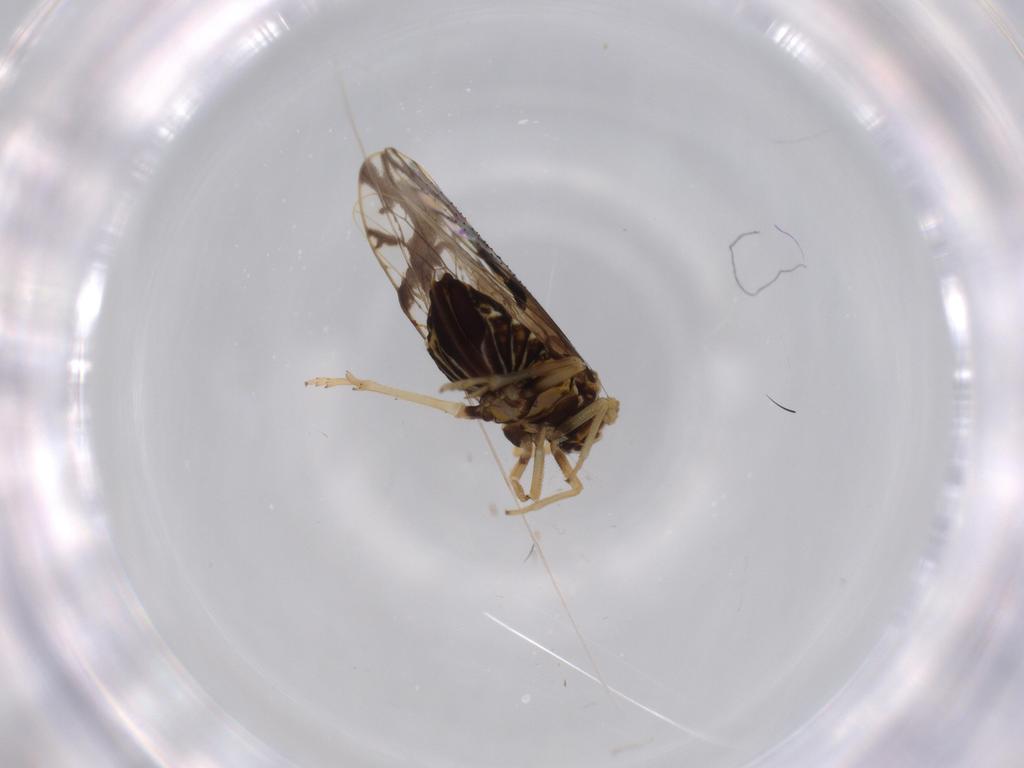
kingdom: Animalia
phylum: Arthropoda
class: Insecta
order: Hemiptera
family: Delphacidae
